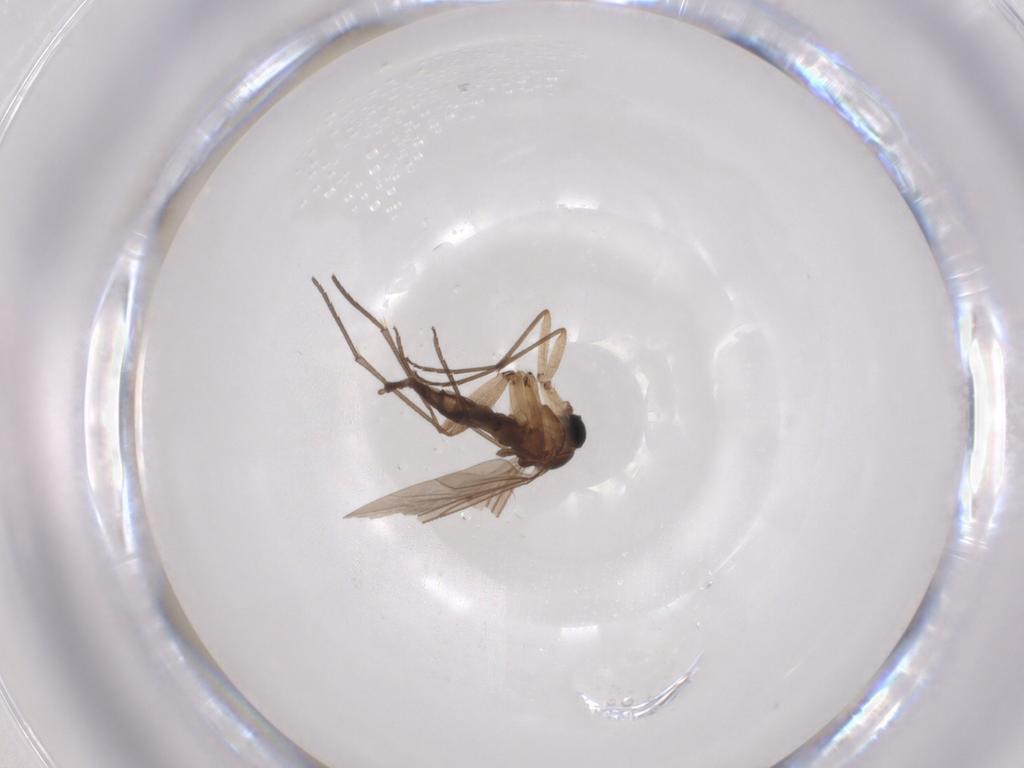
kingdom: Animalia
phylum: Arthropoda
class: Insecta
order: Diptera
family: Sciaridae
